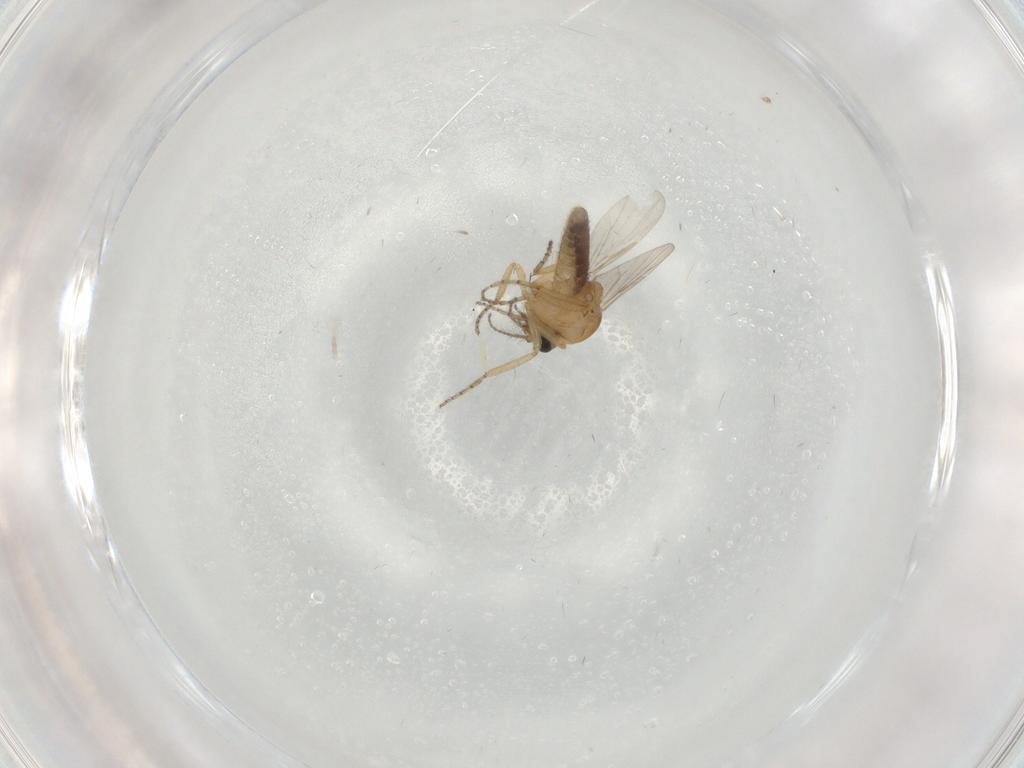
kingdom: Animalia
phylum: Arthropoda
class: Insecta
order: Diptera
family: Ceratopogonidae
